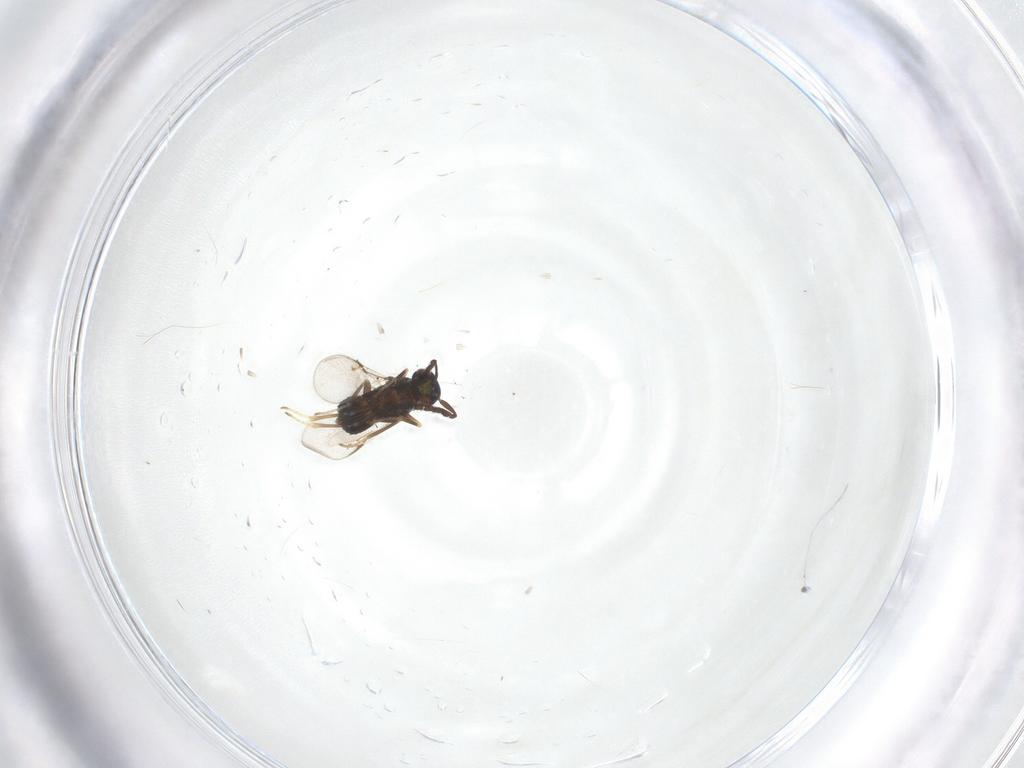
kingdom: Animalia
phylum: Arthropoda
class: Insecta
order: Hymenoptera
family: Encyrtidae
